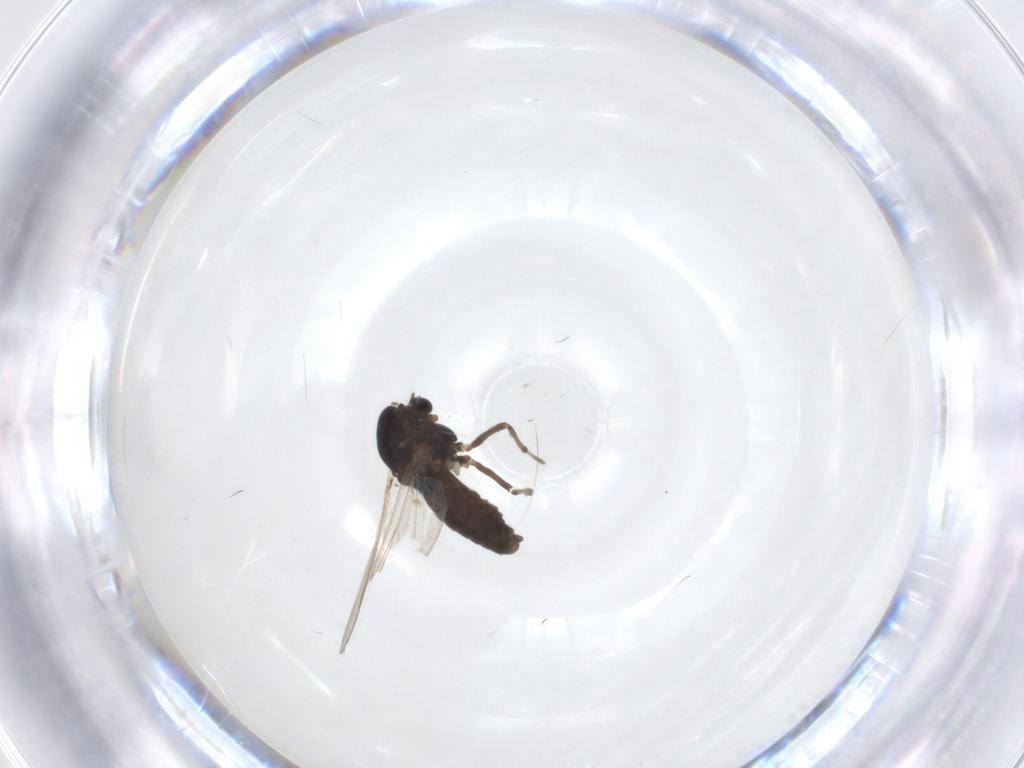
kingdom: Animalia
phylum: Arthropoda
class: Insecta
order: Diptera
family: Chironomidae
